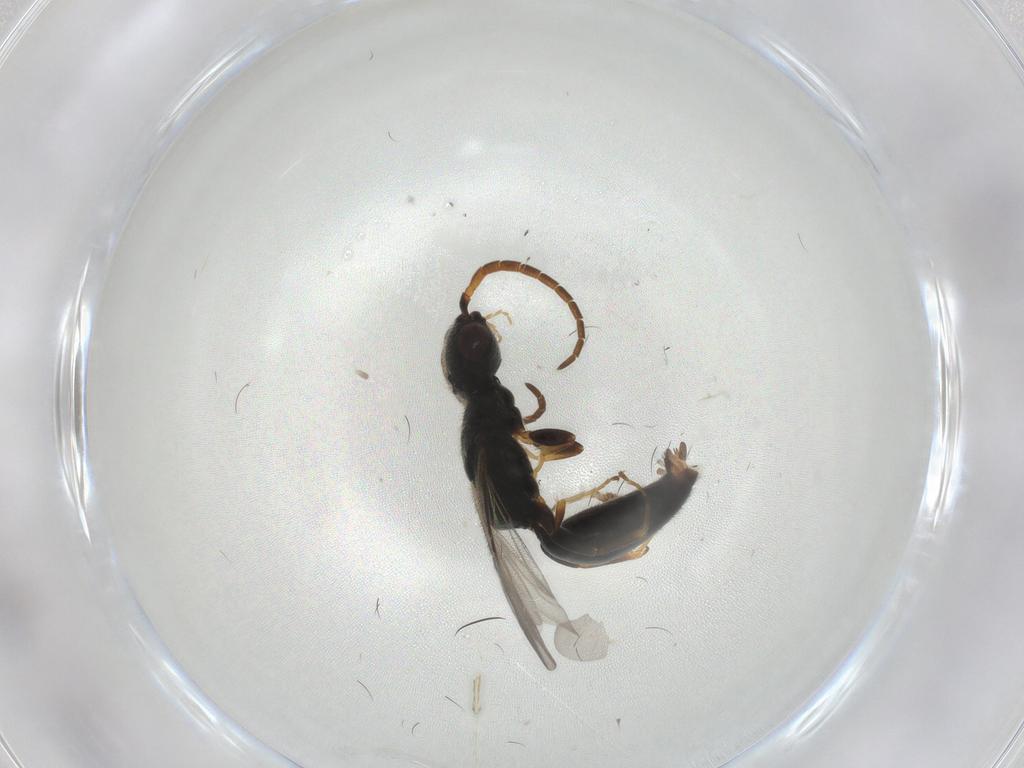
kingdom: Animalia
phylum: Arthropoda
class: Insecta
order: Hymenoptera
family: Bethylidae
